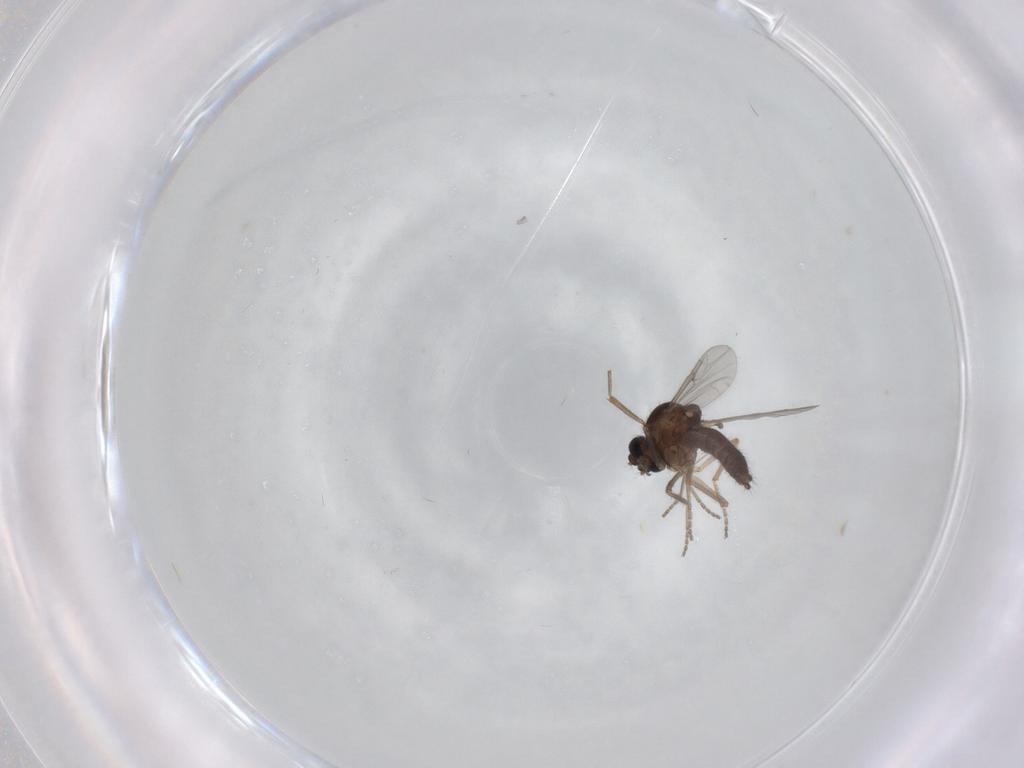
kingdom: Animalia
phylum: Arthropoda
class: Insecta
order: Diptera
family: Ceratopogonidae
